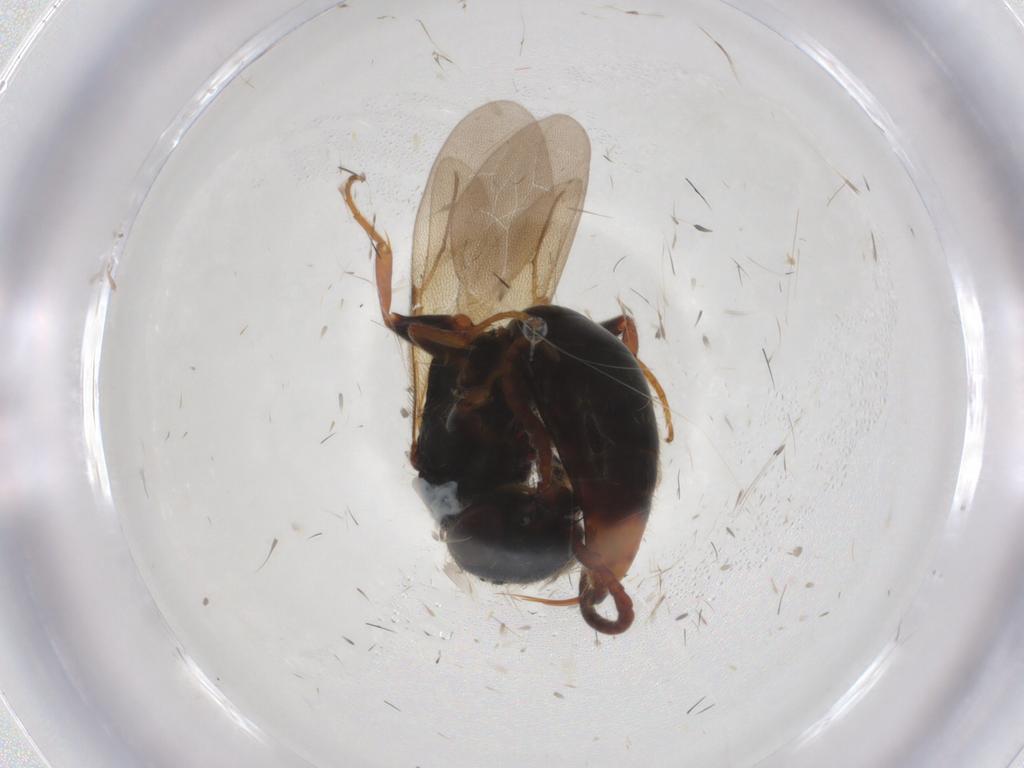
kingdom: Animalia
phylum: Arthropoda
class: Insecta
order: Hymenoptera
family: Bethylidae
